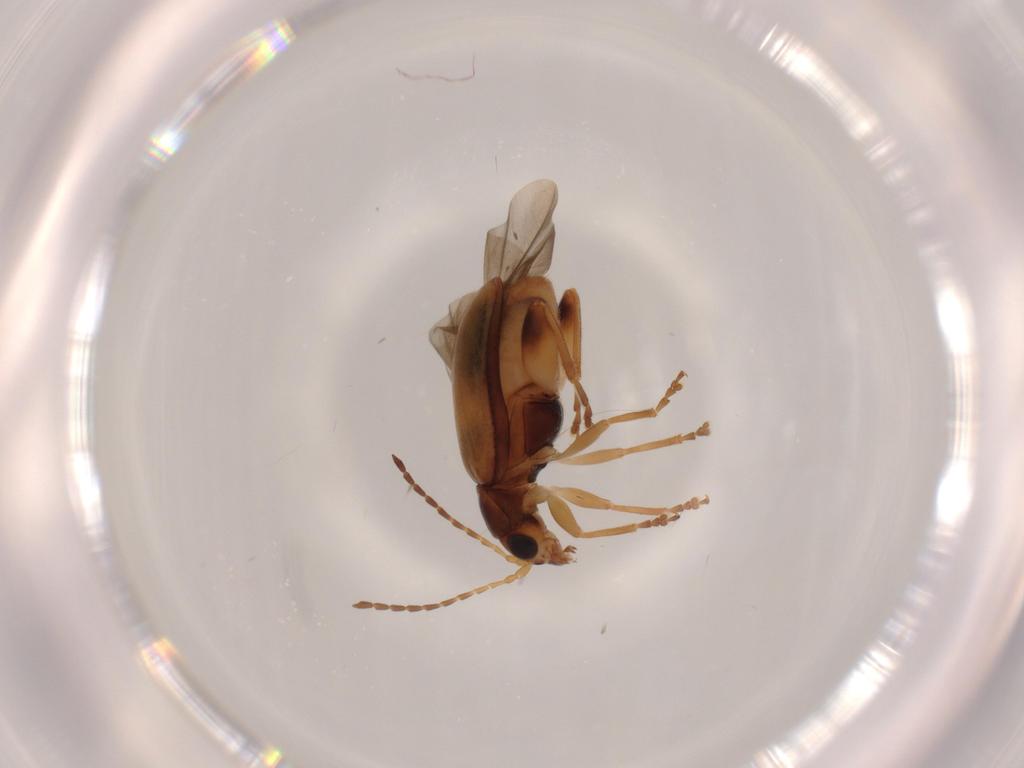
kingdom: Animalia
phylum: Arthropoda
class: Insecta
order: Coleoptera
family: Chrysomelidae
